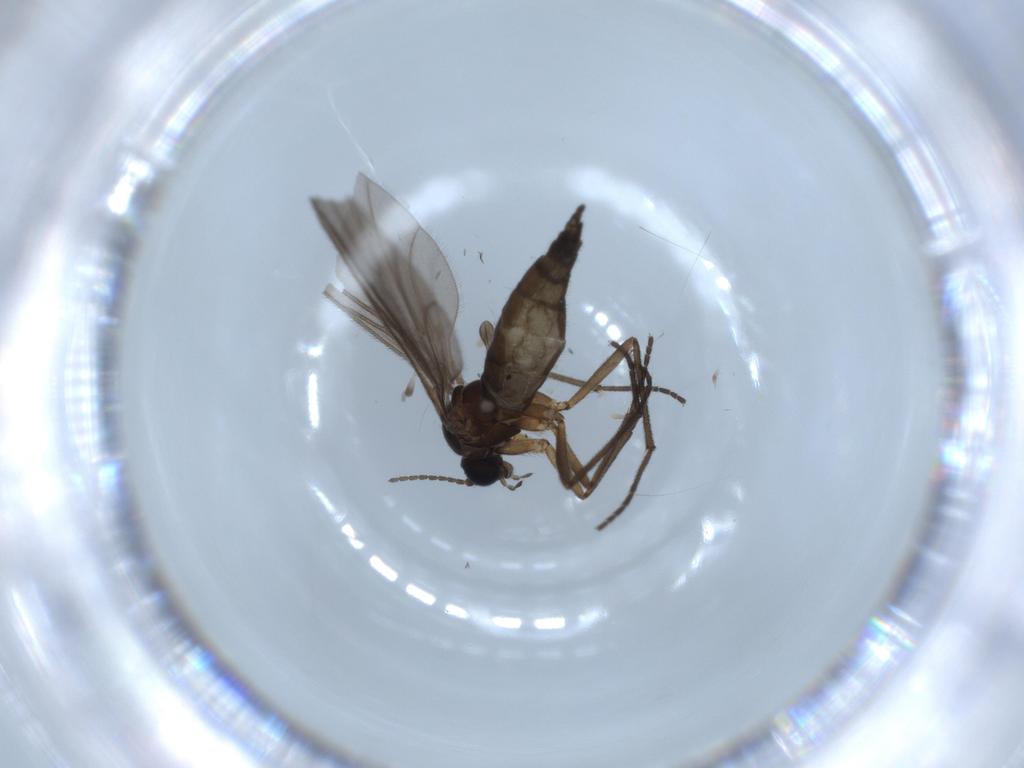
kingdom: Animalia
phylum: Arthropoda
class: Insecta
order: Diptera
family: Sciaridae
